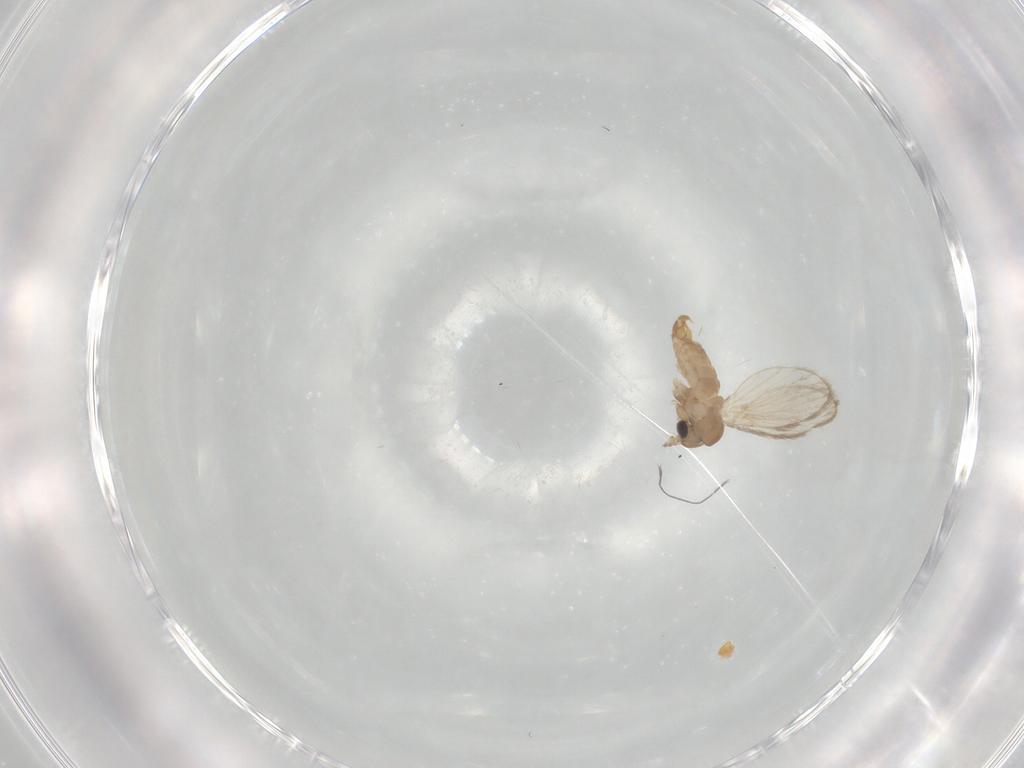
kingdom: Animalia
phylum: Arthropoda
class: Insecta
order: Diptera
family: Psychodidae
